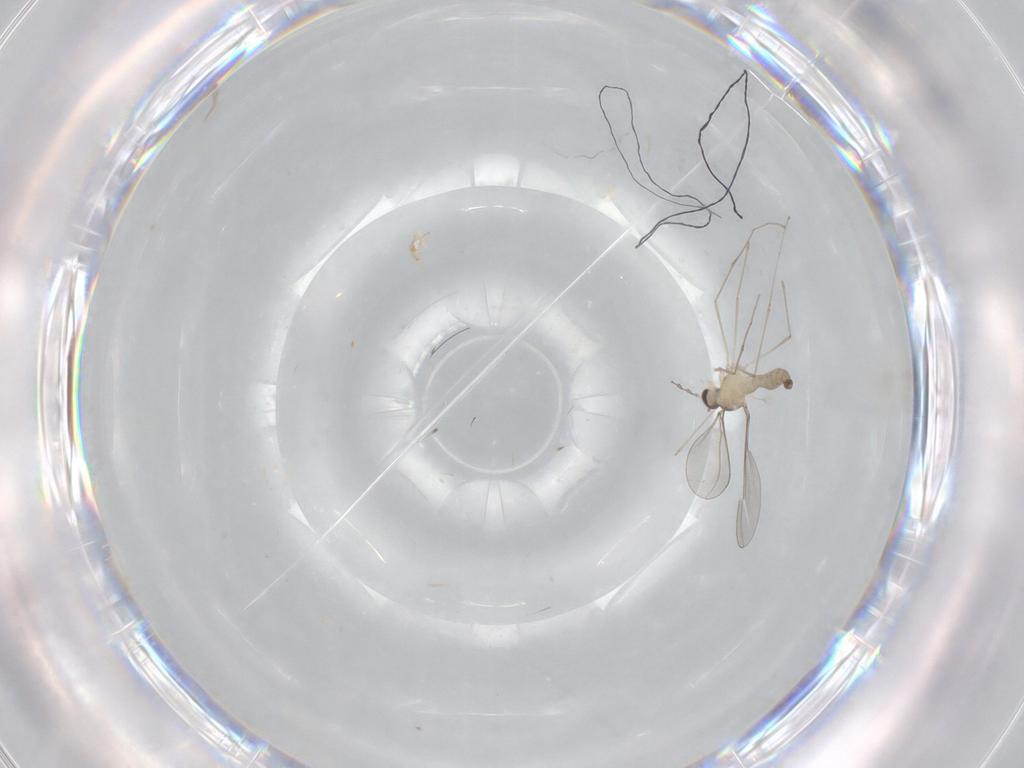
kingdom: Animalia
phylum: Arthropoda
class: Insecta
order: Diptera
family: Cecidomyiidae
